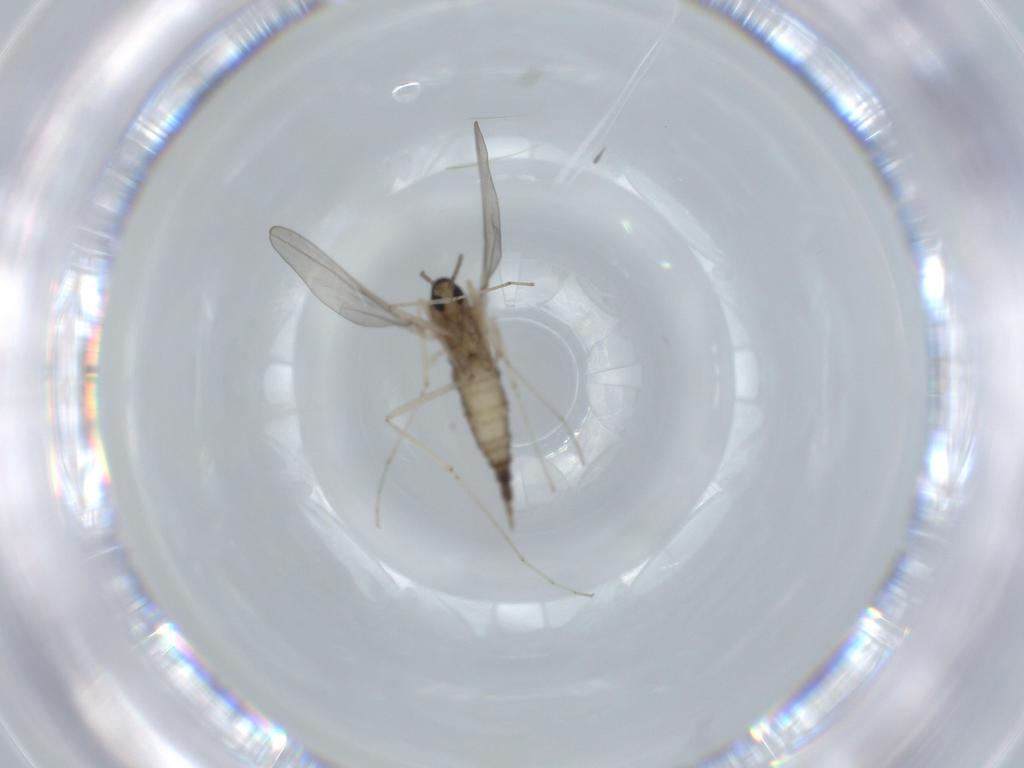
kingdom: Animalia
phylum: Arthropoda
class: Insecta
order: Diptera
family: Cecidomyiidae
